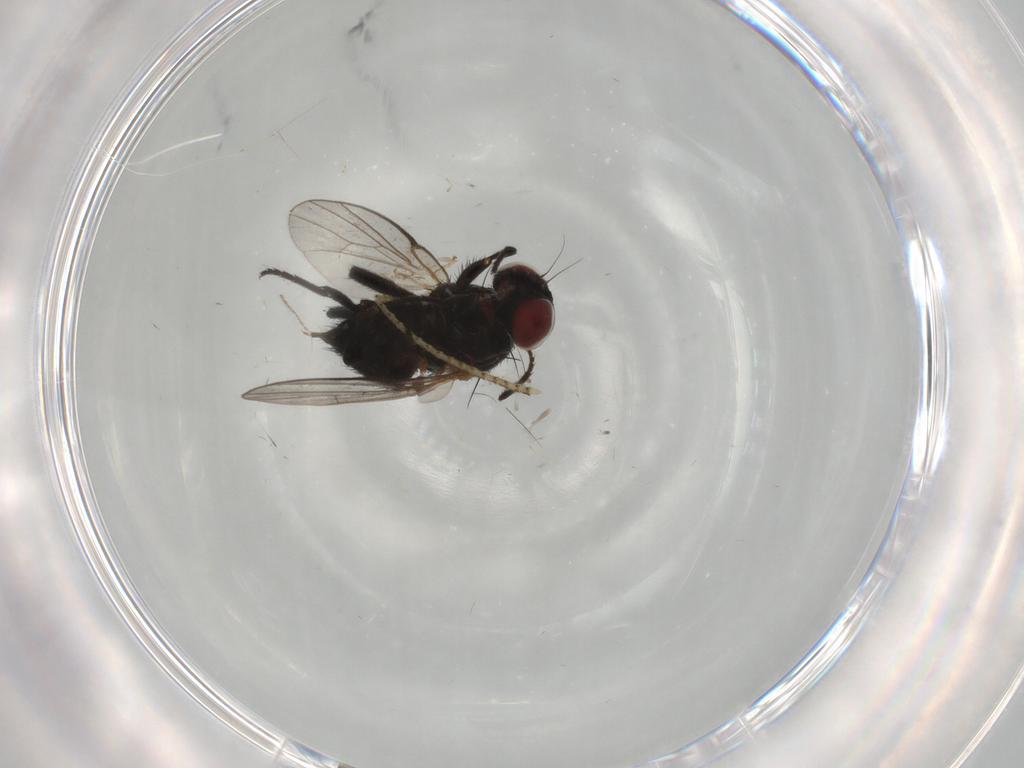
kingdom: Animalia
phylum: Arthropoda
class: Insecta
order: Diptera
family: Agromyzidae
